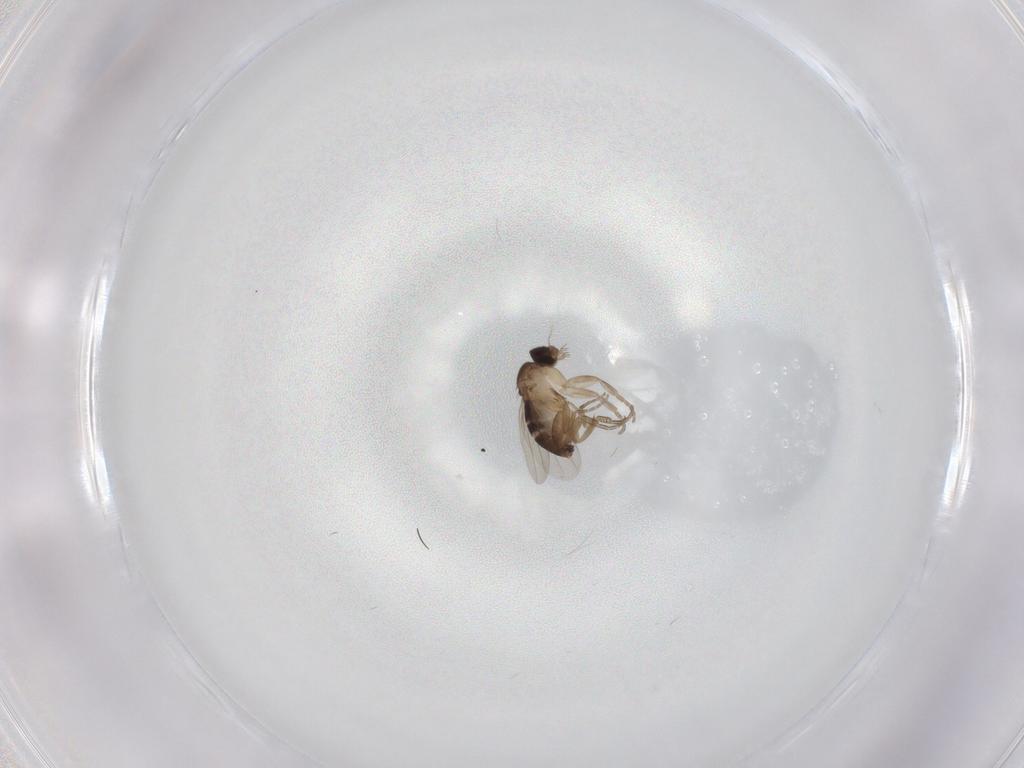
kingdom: Animalia
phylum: Arthropoda
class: Insecta
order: Diptera
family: Phoridae
